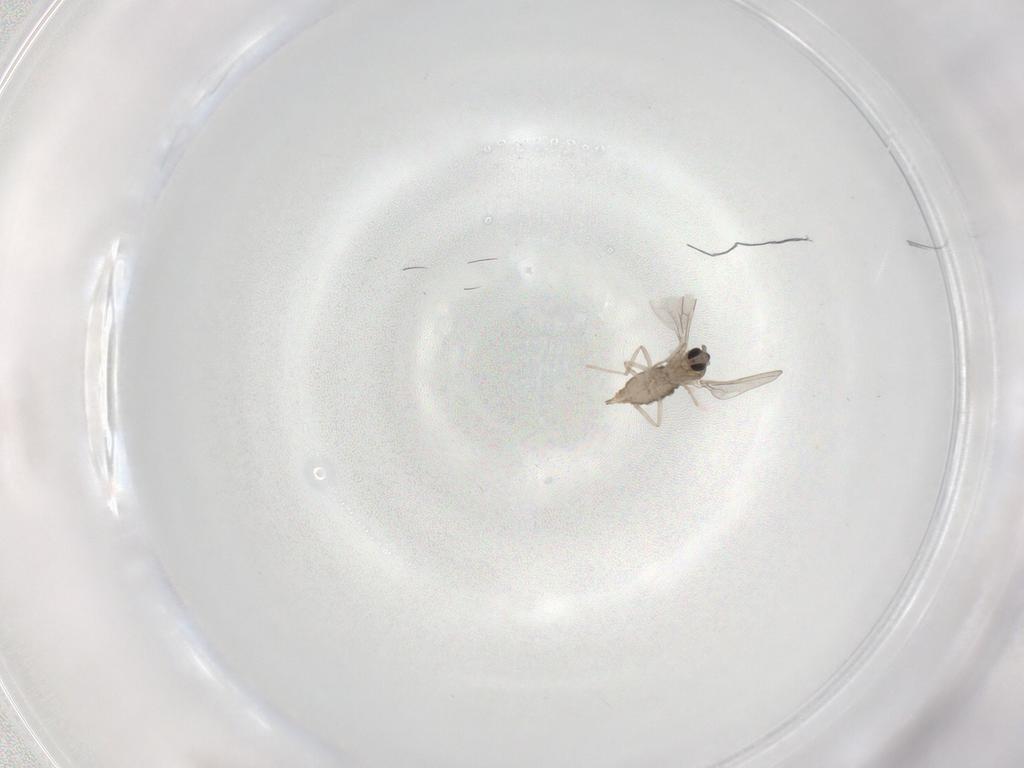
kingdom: Animalia
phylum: Arthropoda
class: Insecta
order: Diptera
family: Cecidomyiidae
